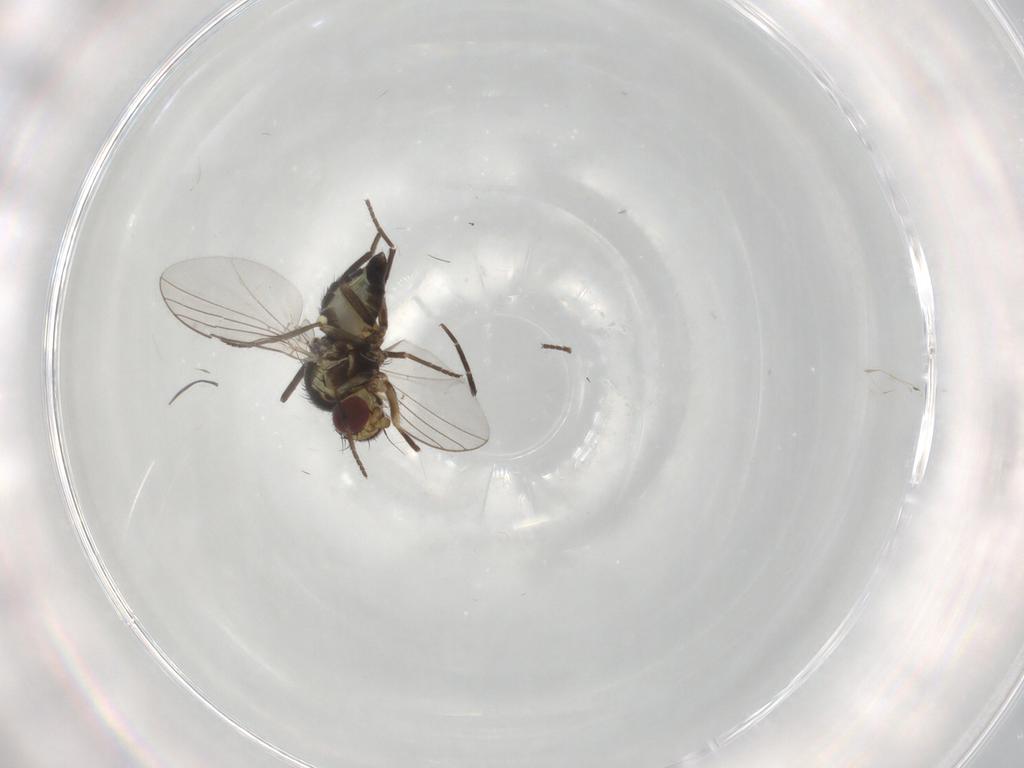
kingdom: Animalia
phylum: Arthropoda
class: Insecta
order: Diptera
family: Agromyzidae
